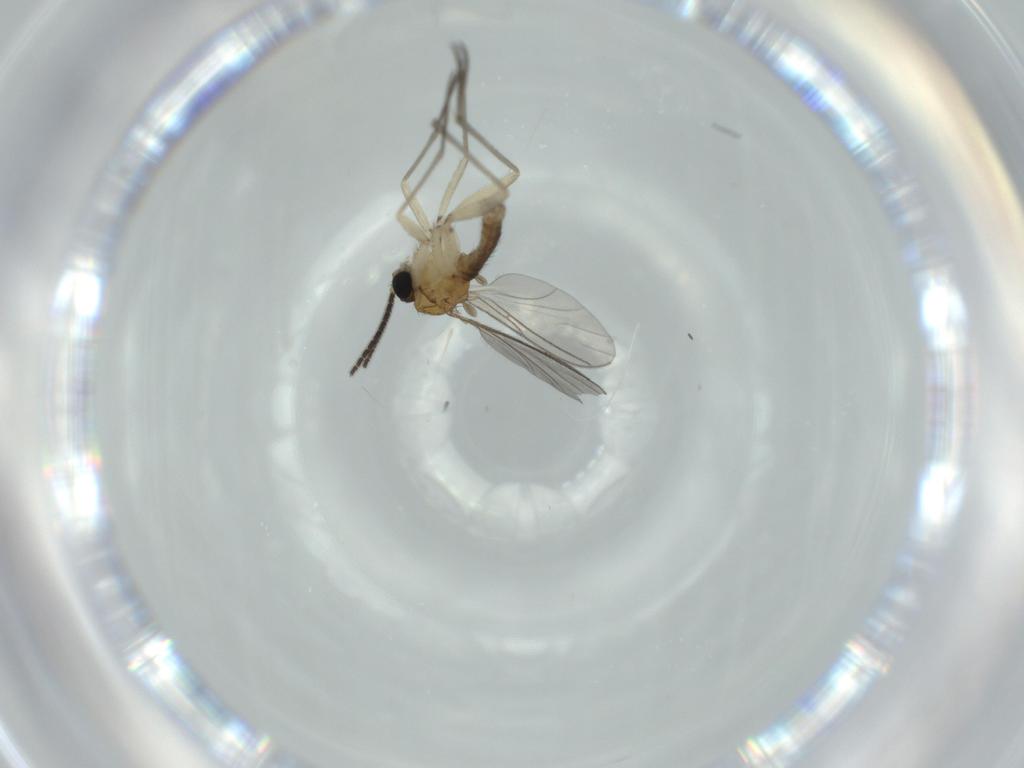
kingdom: Animalia
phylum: Arthropoda
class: Insecta
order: Diptera
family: Sciaridae
